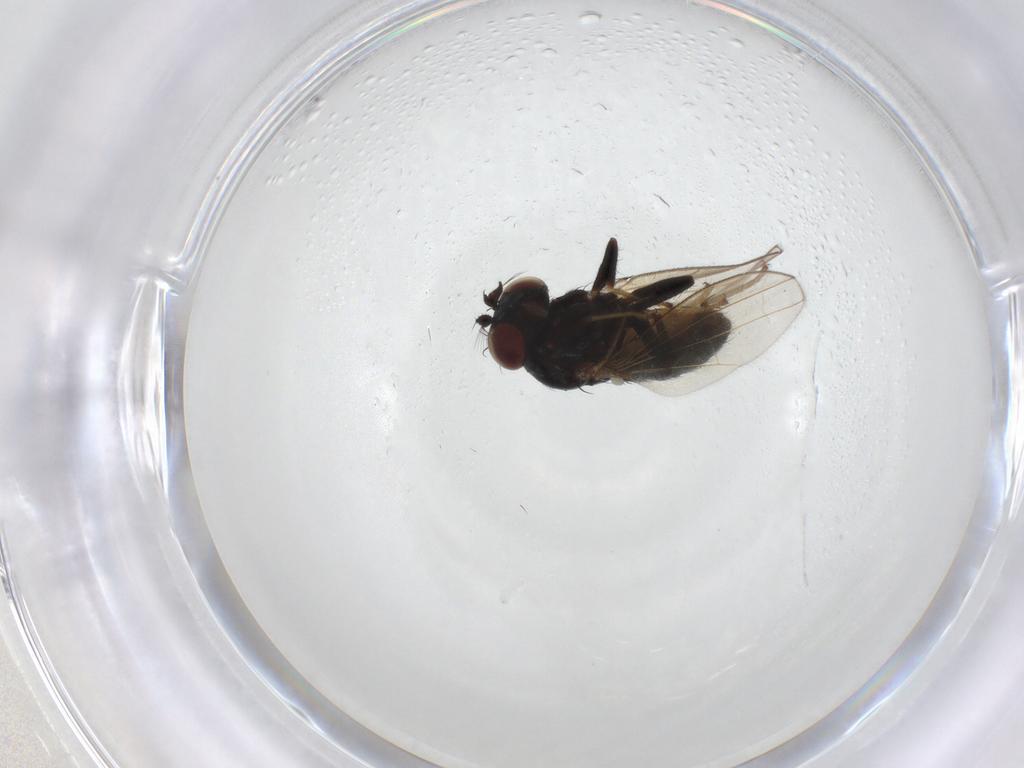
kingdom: Animalia
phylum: Arthropoda
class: Insecta
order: Diptera
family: Ephydridae
